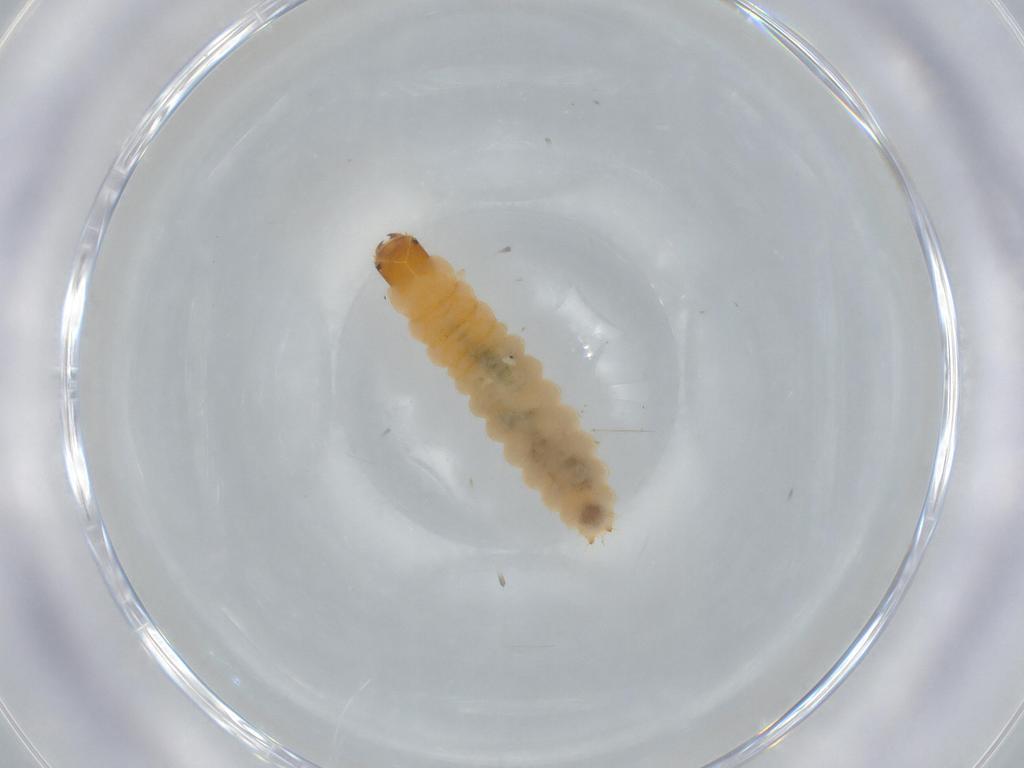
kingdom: Animalia
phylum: Arthropoda
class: Insecta
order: Coleoptera
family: Melyridae
